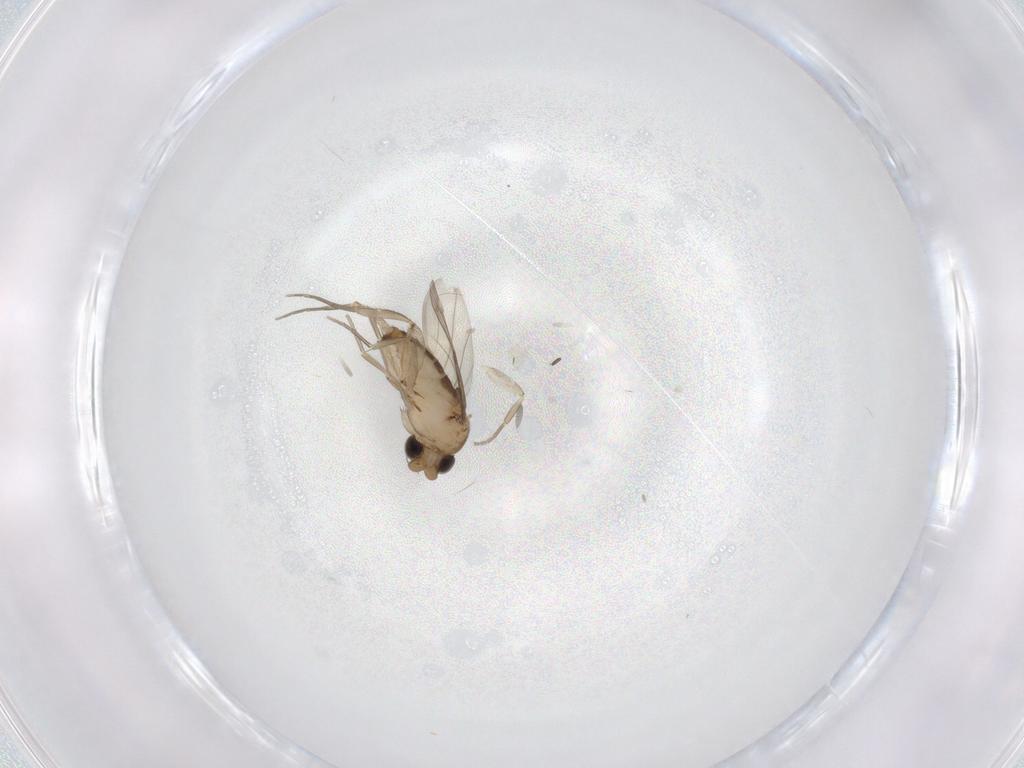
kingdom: Animalia
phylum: Arthropoda
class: Insecta
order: Diptera
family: Phoridae
